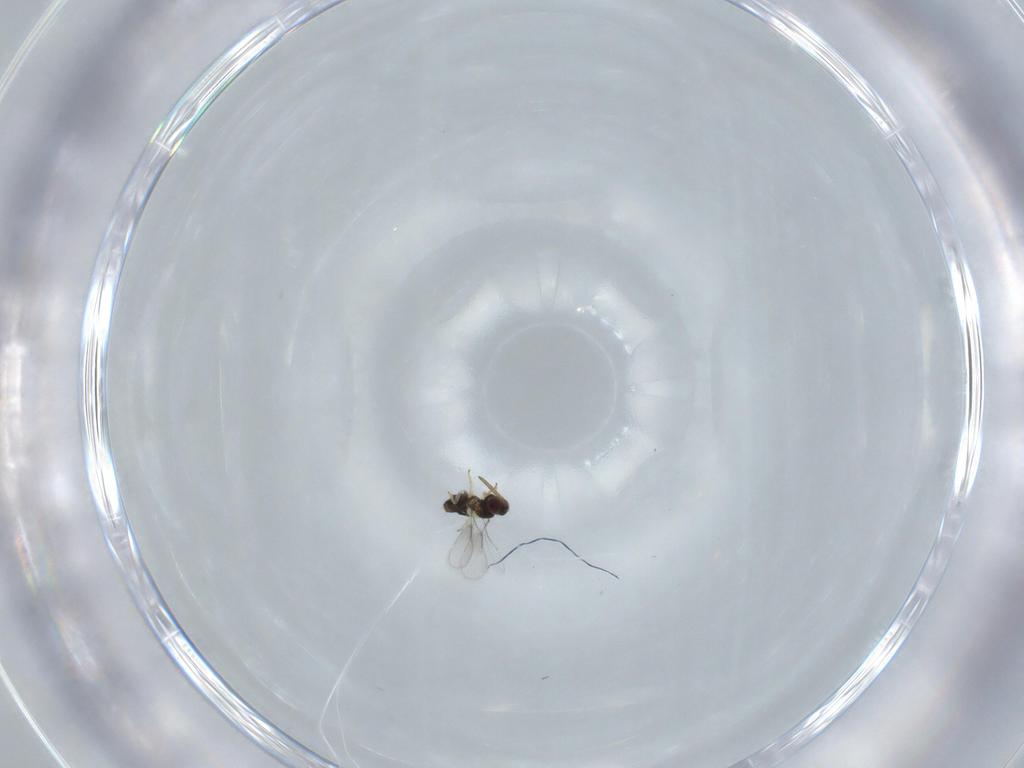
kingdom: Animalia
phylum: Arthropoda
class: Insecta
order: Hymenoptera
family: Aphelinidae
